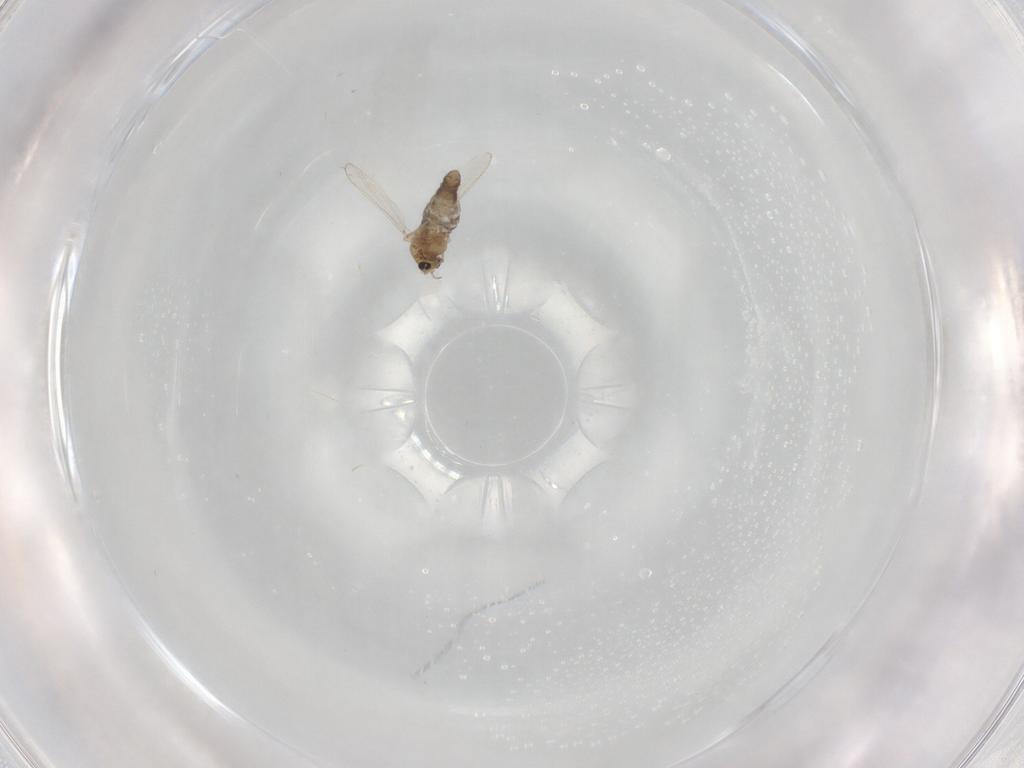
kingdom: Animalia
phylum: Arthropoda
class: Insecta
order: Diptera
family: Chironomidae
